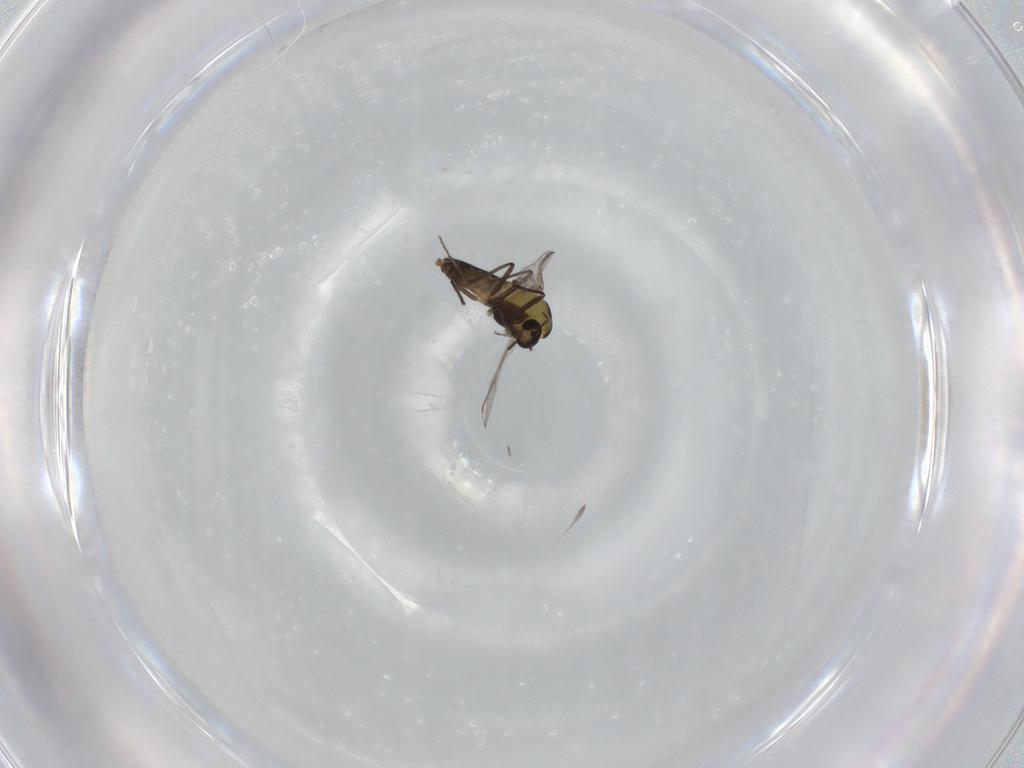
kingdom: Animalia
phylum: Arthropoda
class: Insecta
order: Diptera
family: Chironomidae
